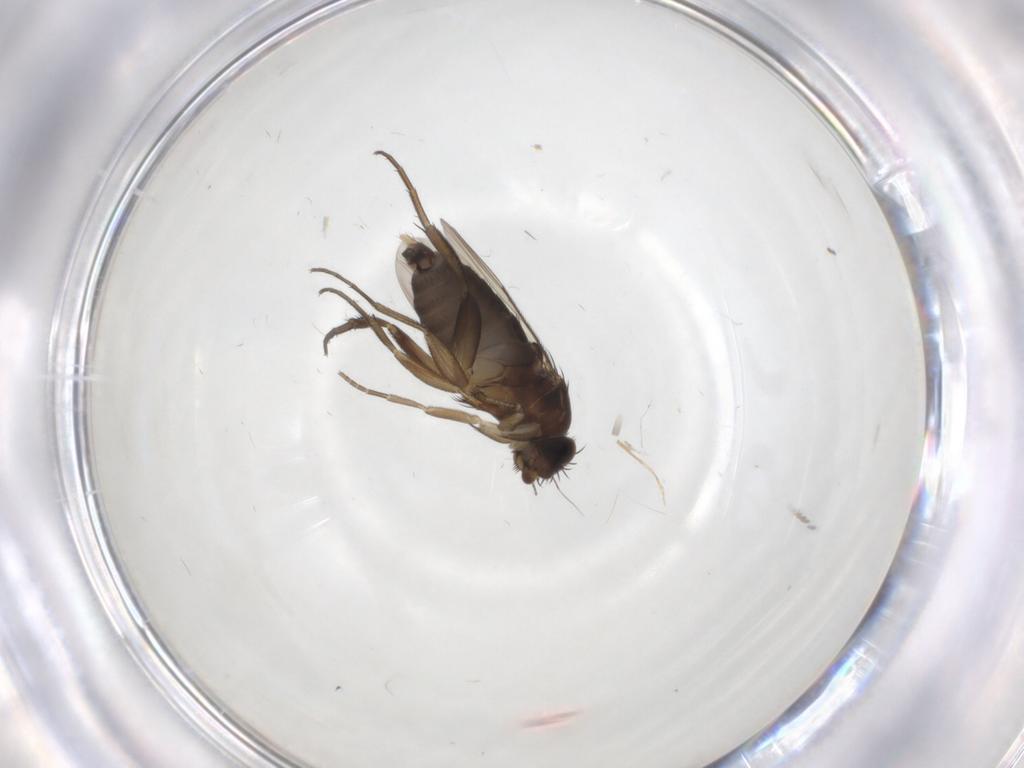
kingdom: Animalia
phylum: Arthropoda
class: Insecta
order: Diptera
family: Phoridae
